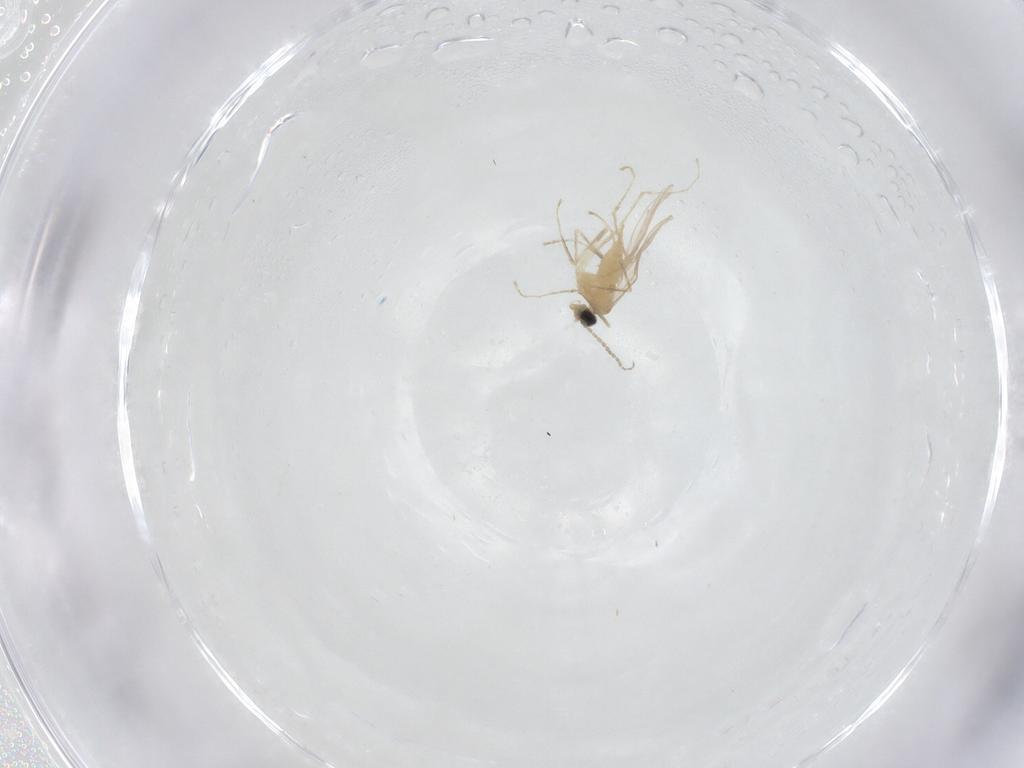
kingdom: Animalia
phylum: Arthropoda
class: Insecta
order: Diptera
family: Cecidomyiidae
